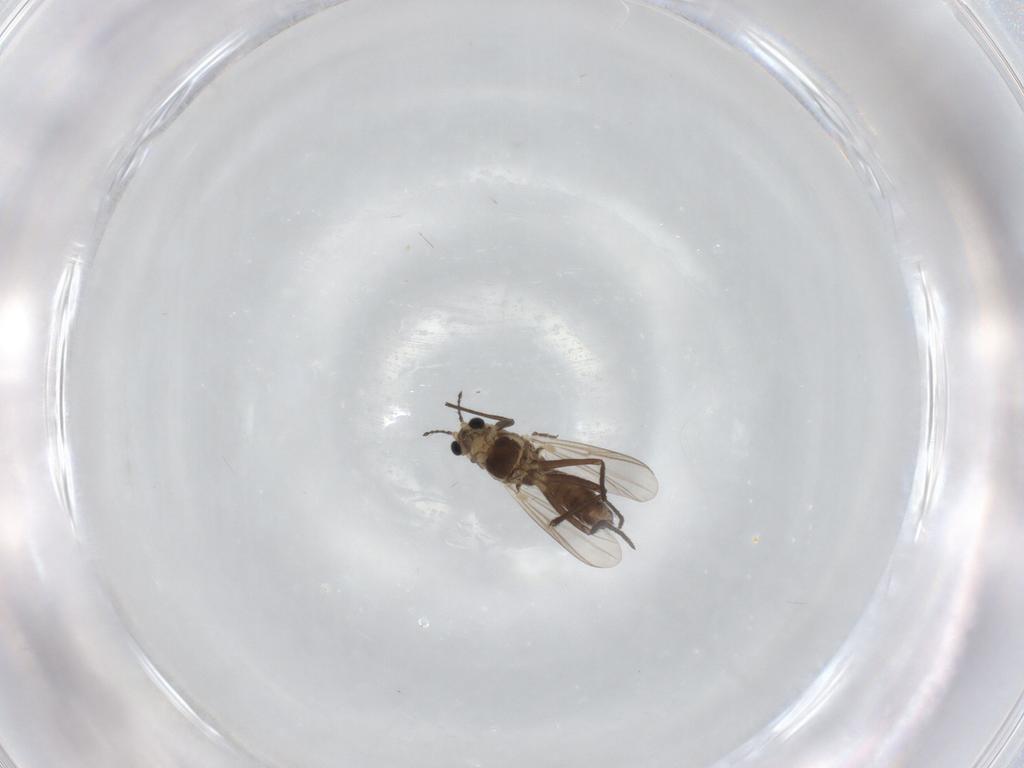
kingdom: Animalia
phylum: Arthropoda
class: Insecta
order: Diptera
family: Chironomidae
